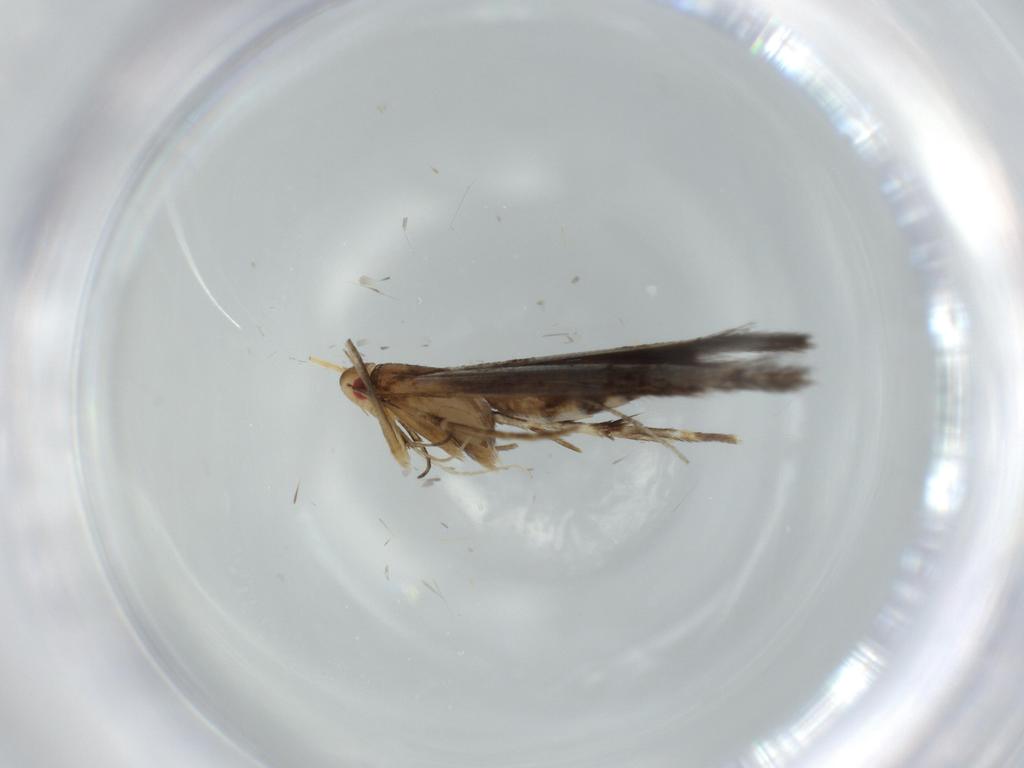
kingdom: Animalia
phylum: Arthropoda
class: Insecta
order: Lepidoptera
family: Cosmopterigidae
